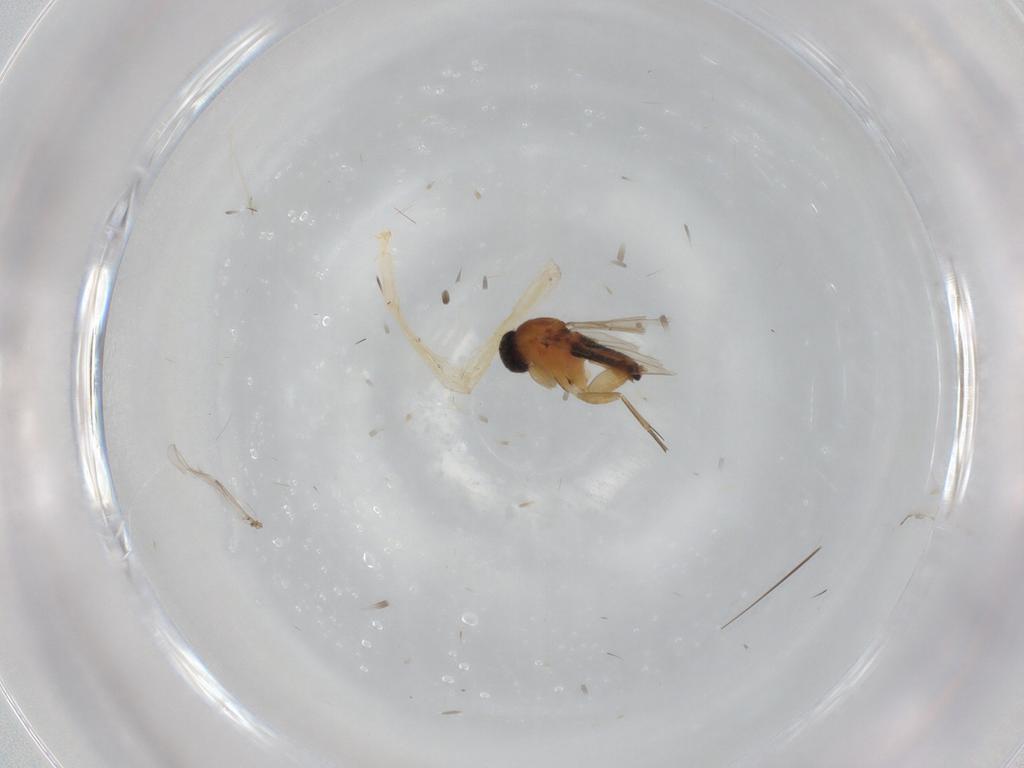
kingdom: Animalia
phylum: Arthropoda
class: Insecta
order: Diptera
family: Phoridae
